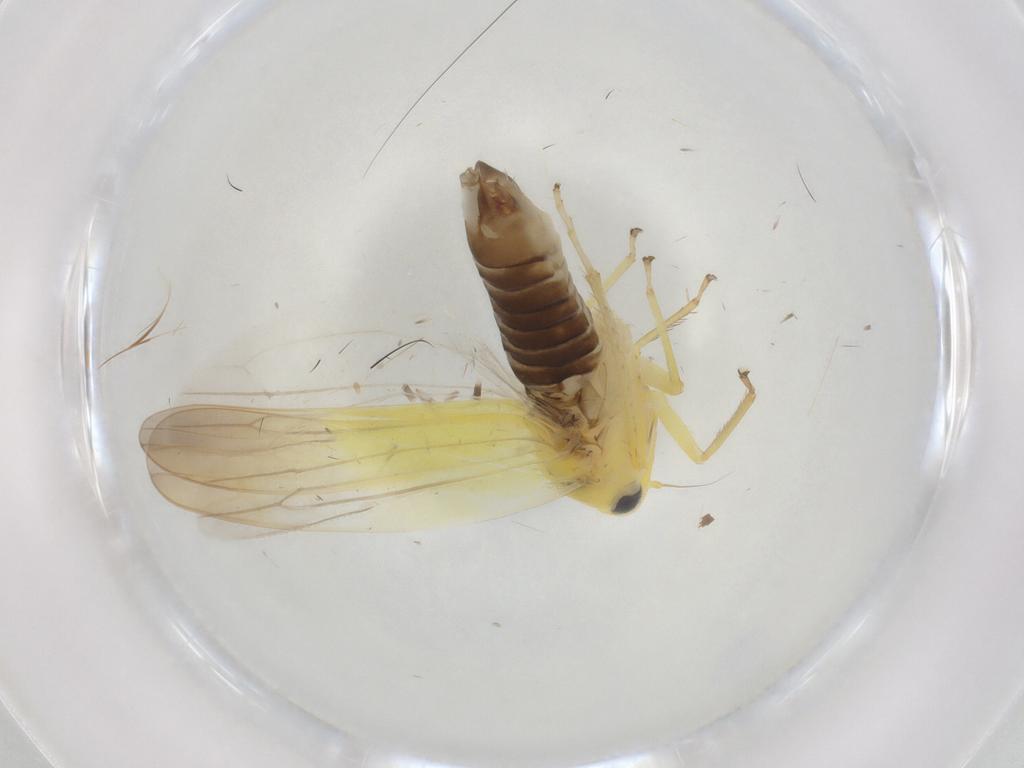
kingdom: Animalia
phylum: Arthropoda
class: Insecta
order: Hemiptera
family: Cicadellidae
